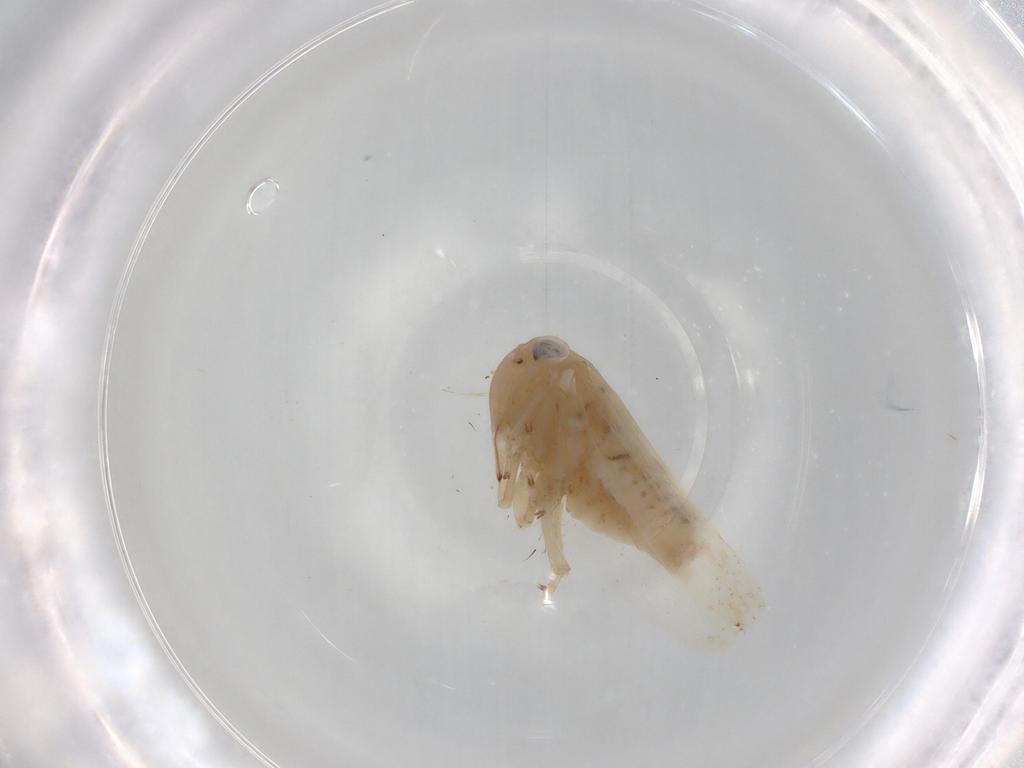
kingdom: Animalia
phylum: Arthropoda
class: Insecta
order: Hemiptera
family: Cicadellidae
